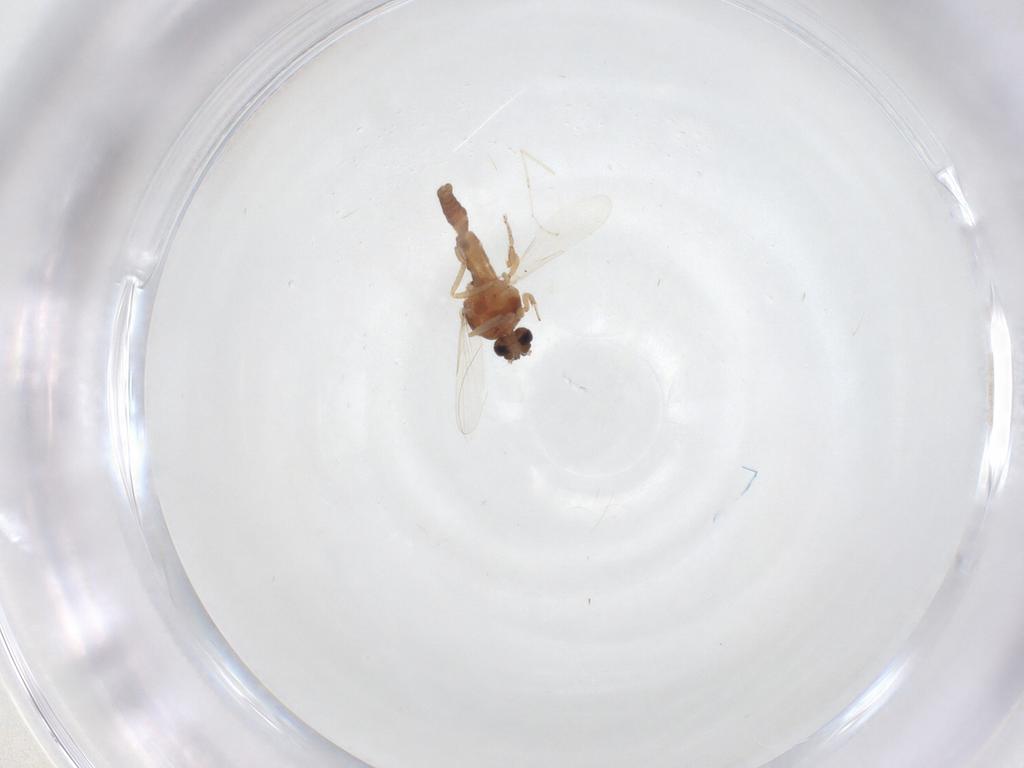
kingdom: Animalia
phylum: Arthropoda
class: Insecta
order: Diptera
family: Ceratopogonidae
